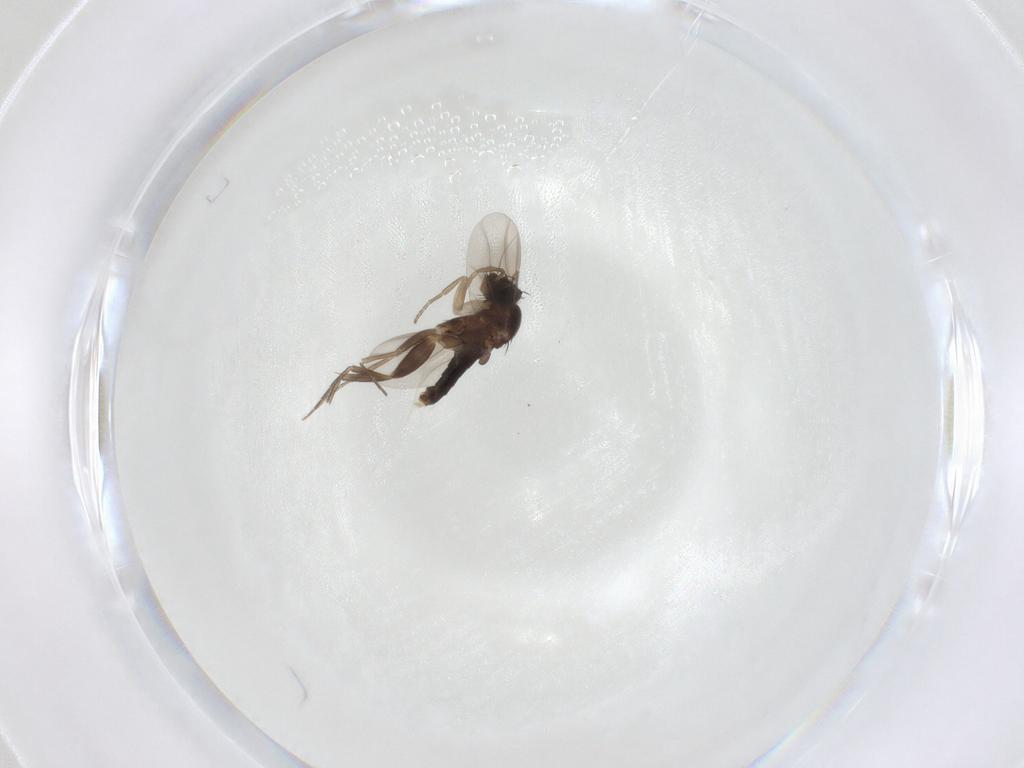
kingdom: Animalia
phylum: Arthropoda
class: Insecta
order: Diptera
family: Phoridae
